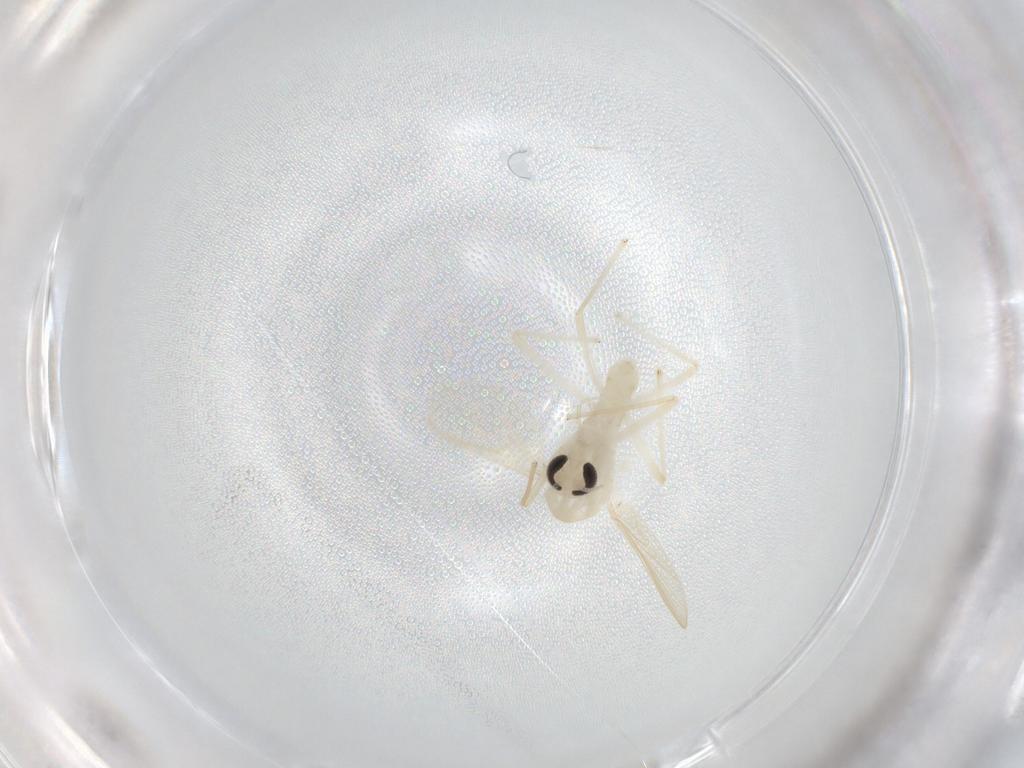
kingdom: Animalia
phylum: Arthropoda
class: Insecta
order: Diptera
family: Chironomidae
